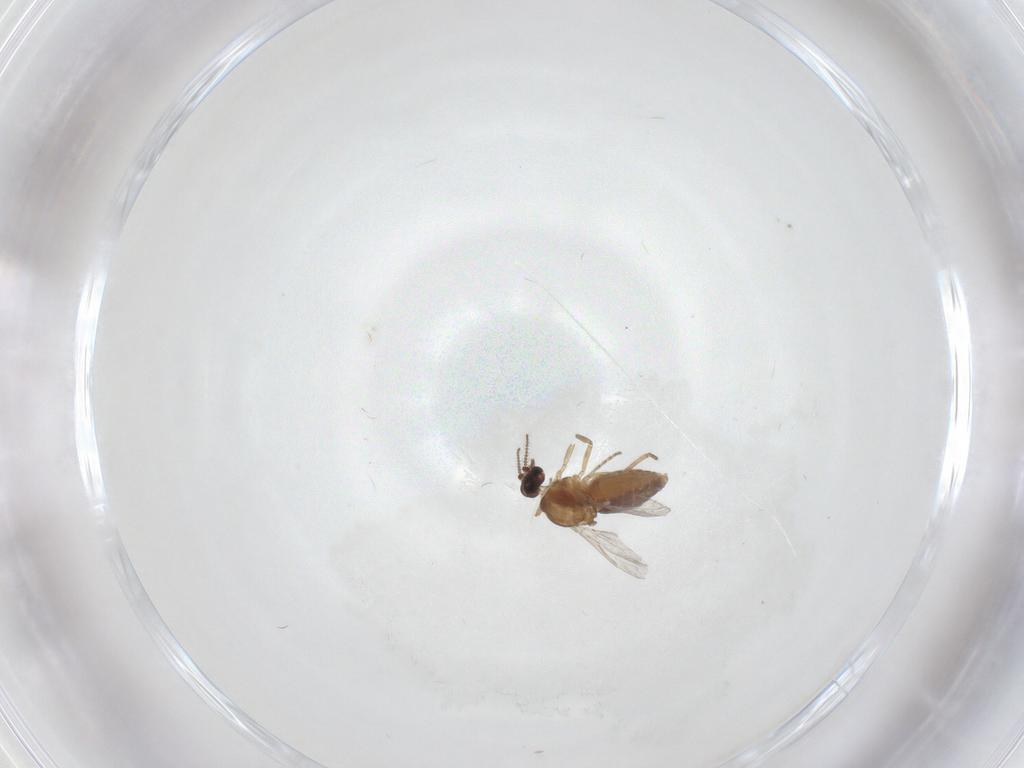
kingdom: Animalia
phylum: Arthropoda
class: Insecta
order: Diptera
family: Ceratopogonidae
